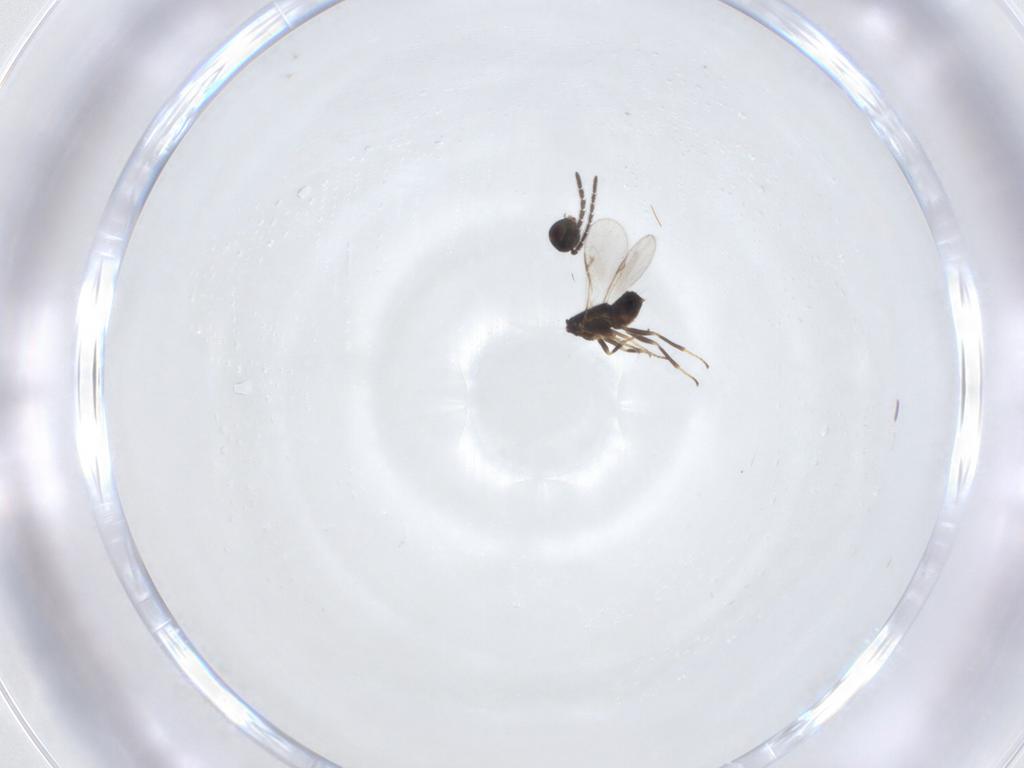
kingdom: Animalia
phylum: Arthropoda
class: Insecta
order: Hymenoptera
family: Encyrtidae
